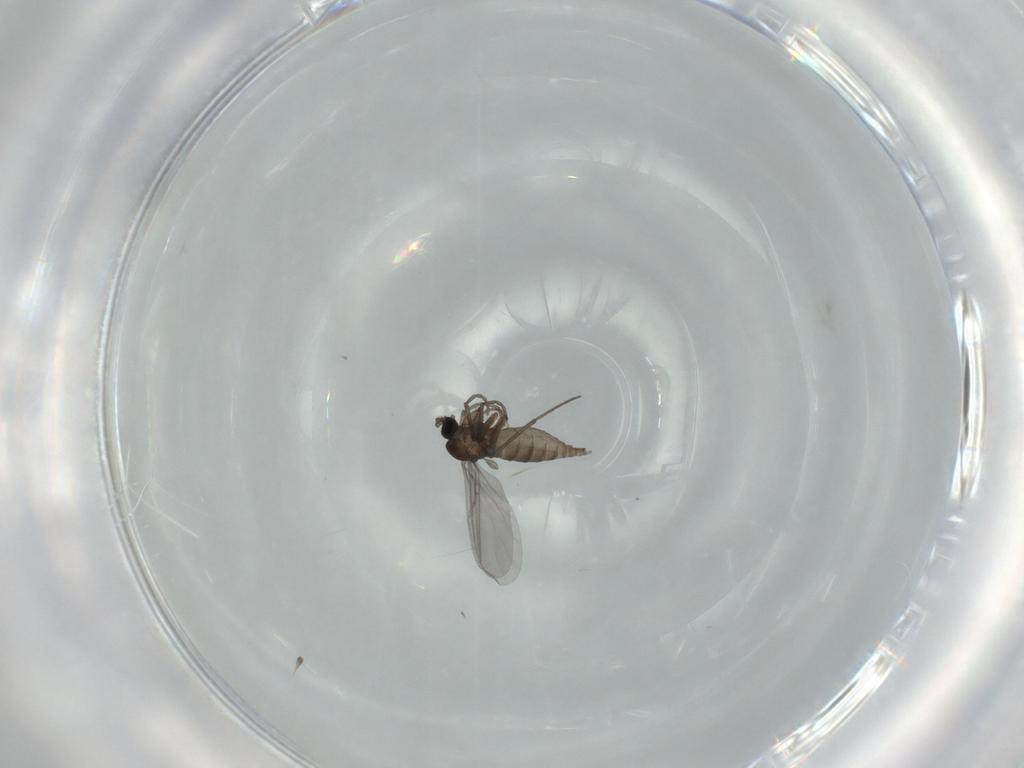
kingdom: Animalia
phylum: Arthropoda
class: Insecta
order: Diptera
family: Sciaridae
